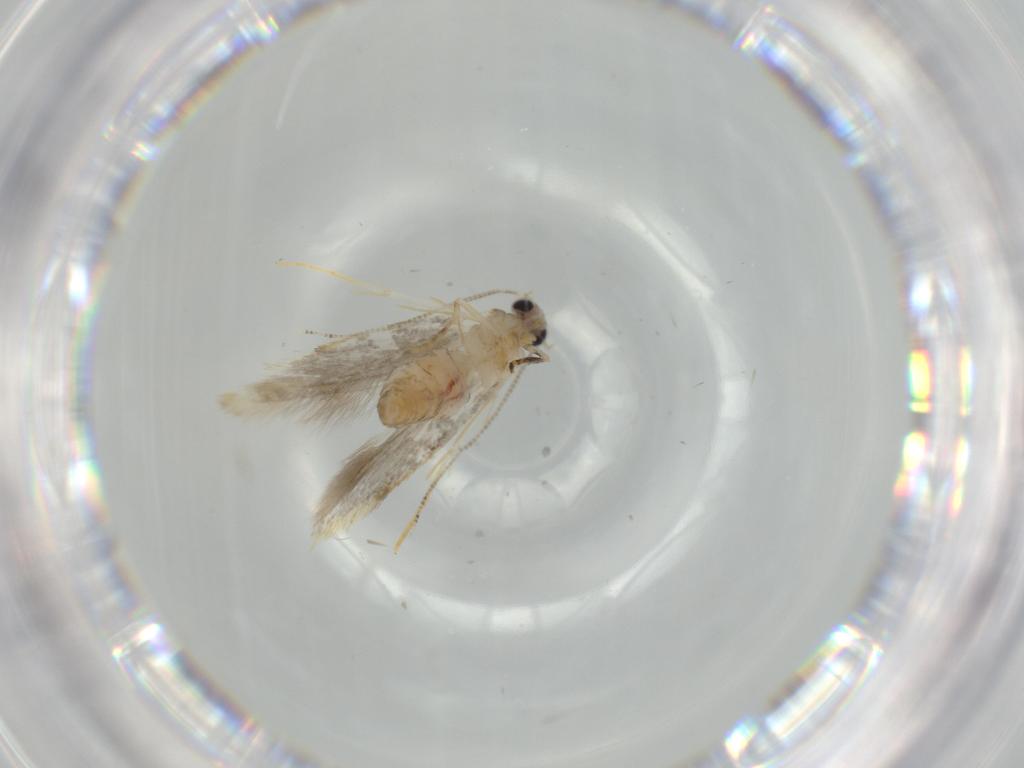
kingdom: Animalia
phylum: Arthropoda
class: Insecta
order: Lepidoptera
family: Tineidae
